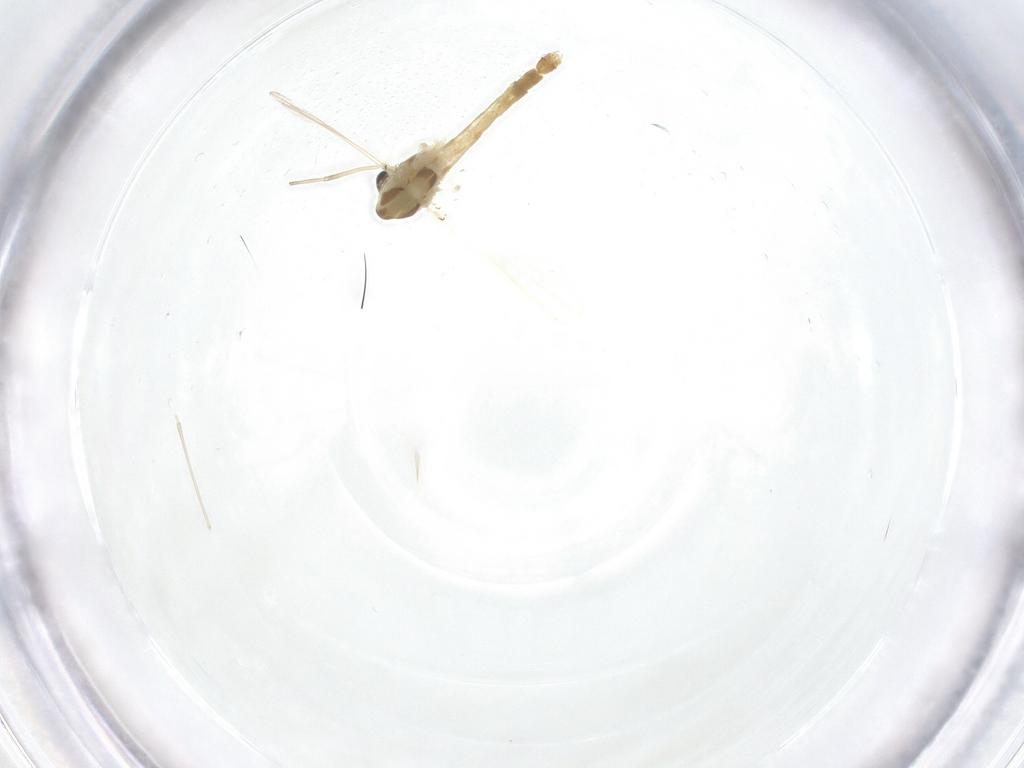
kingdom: Animalia
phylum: Arthropoda
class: Insecta
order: Diptera
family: Chironomidae
